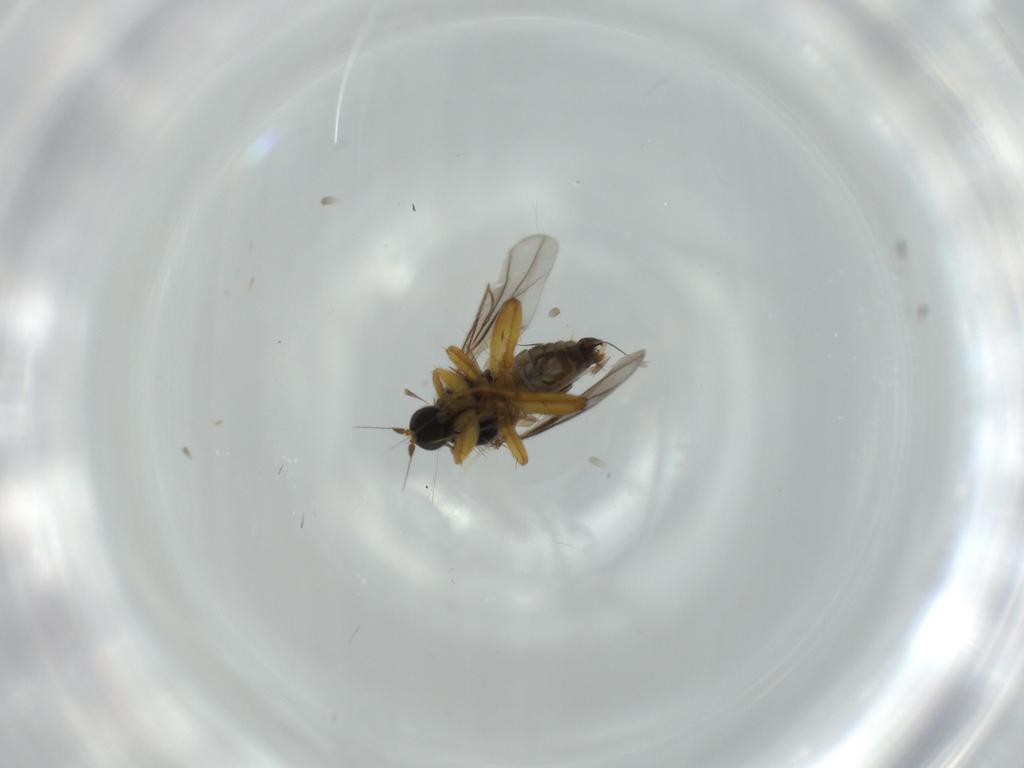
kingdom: Animalia
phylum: Arthropoda
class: Insecta
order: Diptera
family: Hybotidae
